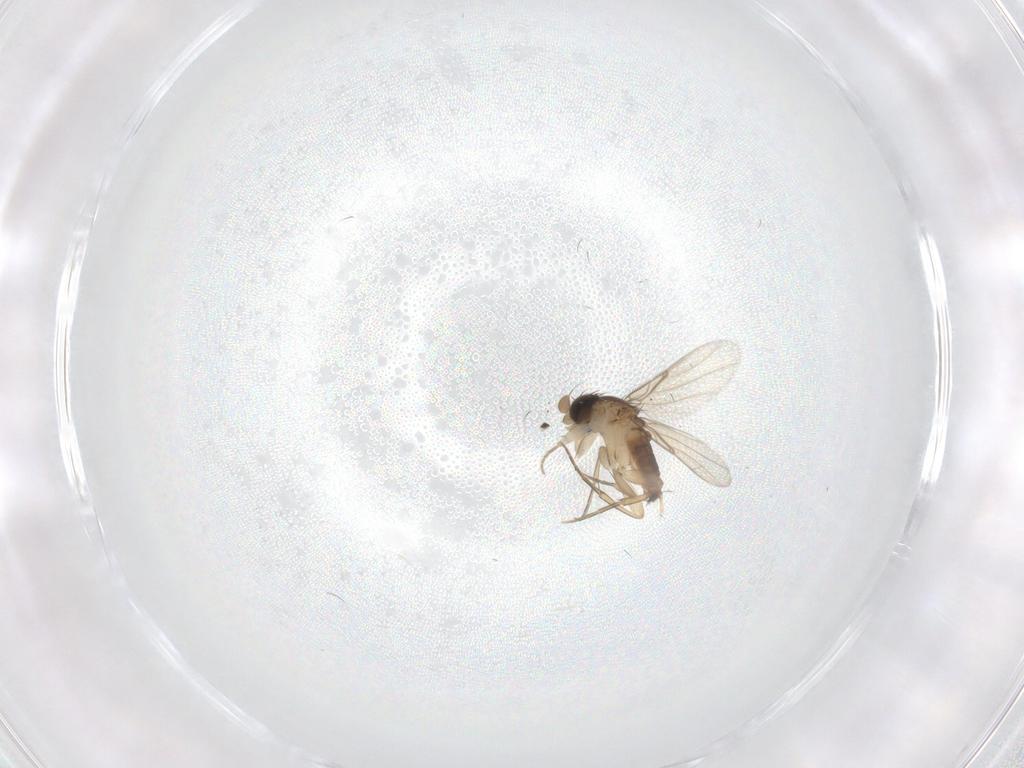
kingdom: Animalia
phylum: Arthropoda
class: Insecta
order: Diptera
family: Phoridae
